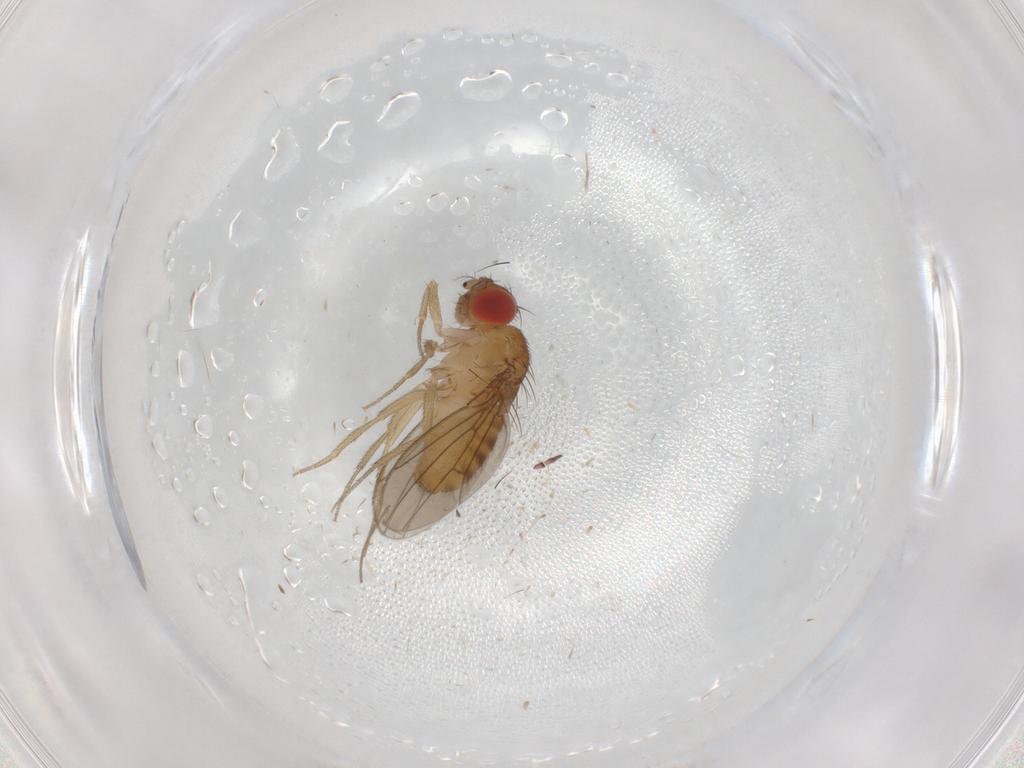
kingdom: Animalia
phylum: Arthropoda
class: Insecta
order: Diptera
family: Drosophilidae
